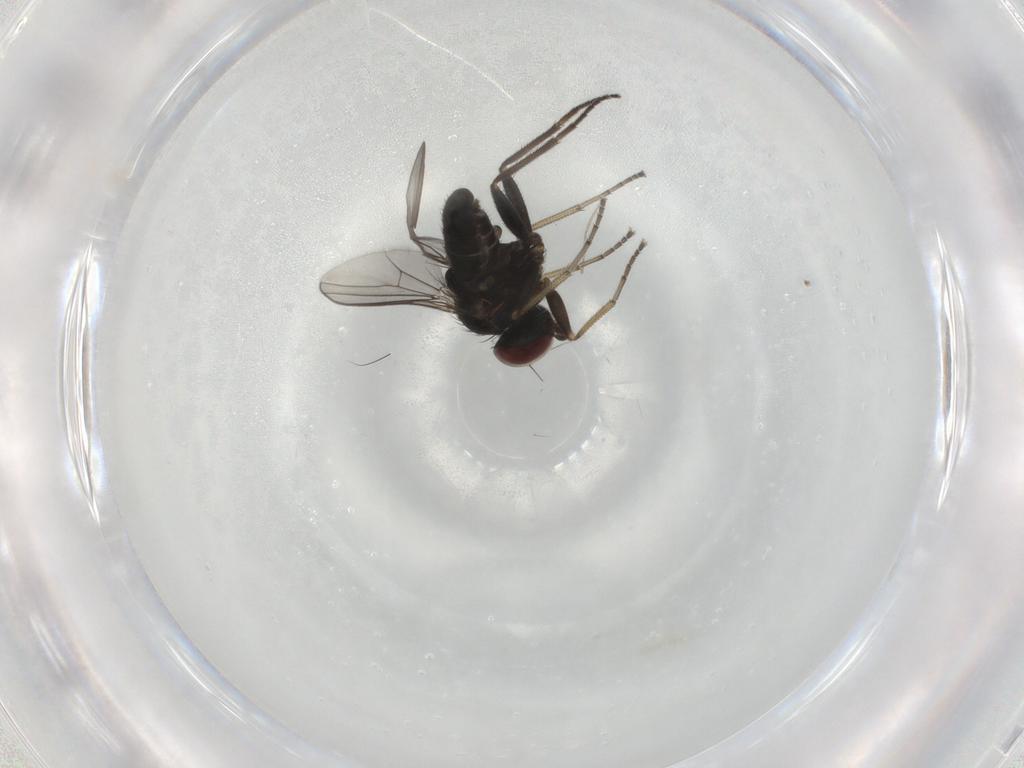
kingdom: Animalia
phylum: Arthropoda
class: Insecta
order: Diptera
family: Dolichopodidae
